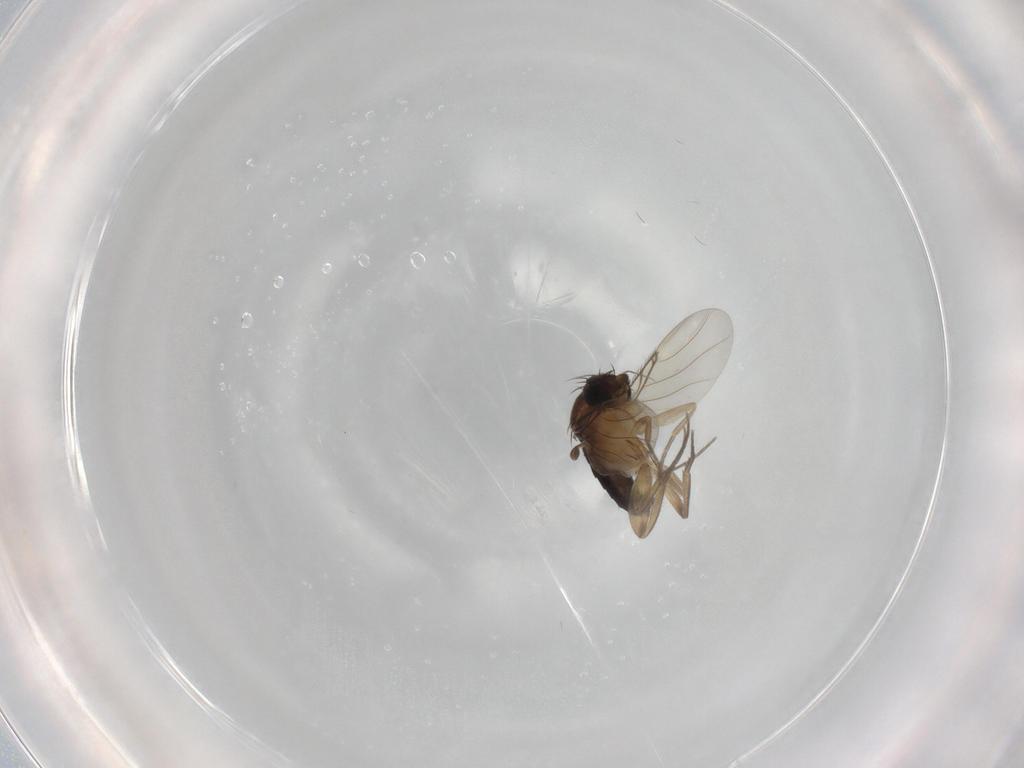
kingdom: Animalia
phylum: Arthropoda
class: Insecta
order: Diptera
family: Phoridae
